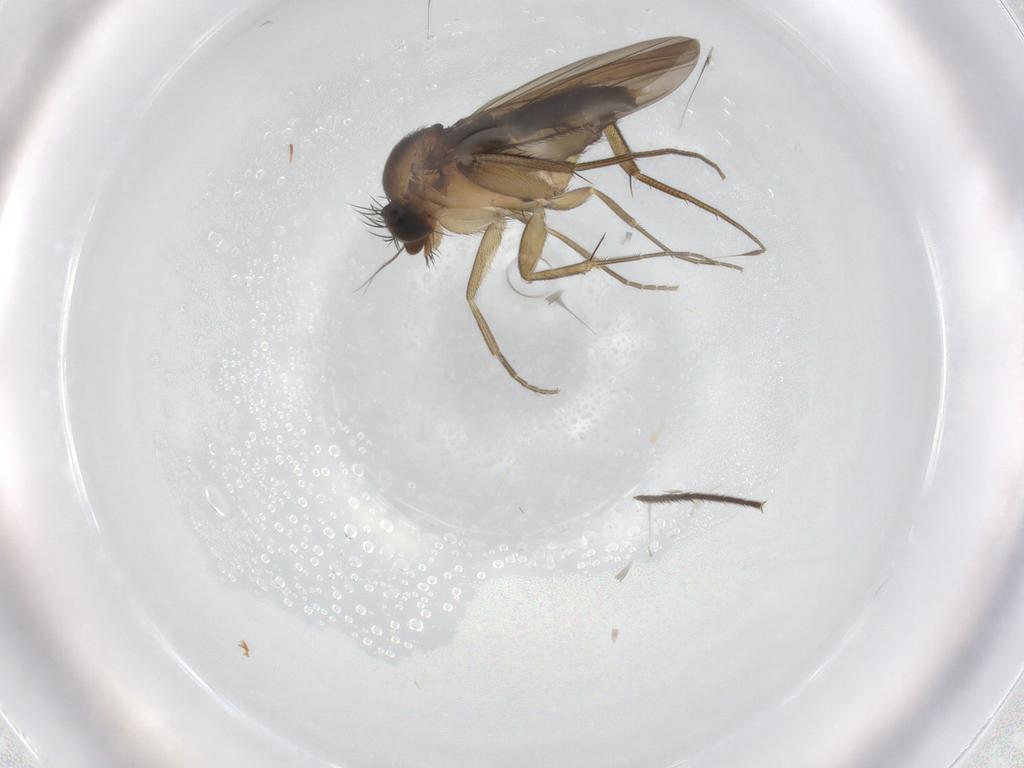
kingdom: Animalia
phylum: Arthropoda
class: Insecta
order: Diptera
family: Phoridae
